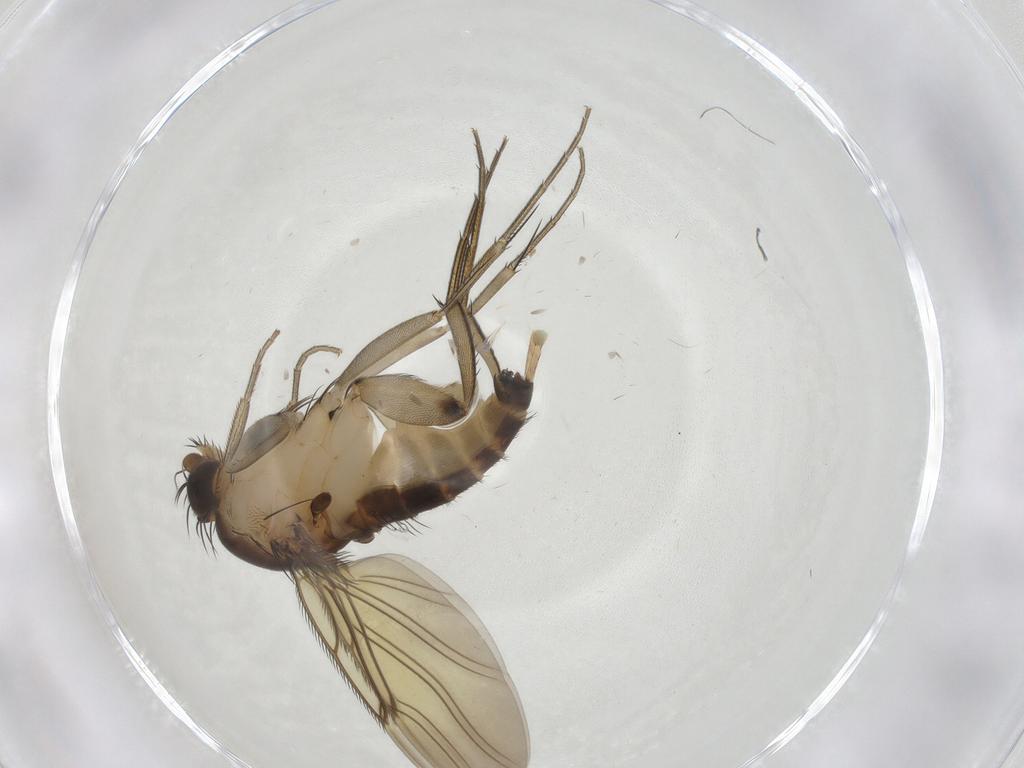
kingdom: Animalia
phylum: Arthropoda
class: Insecta
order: Diptera
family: Phoridae
